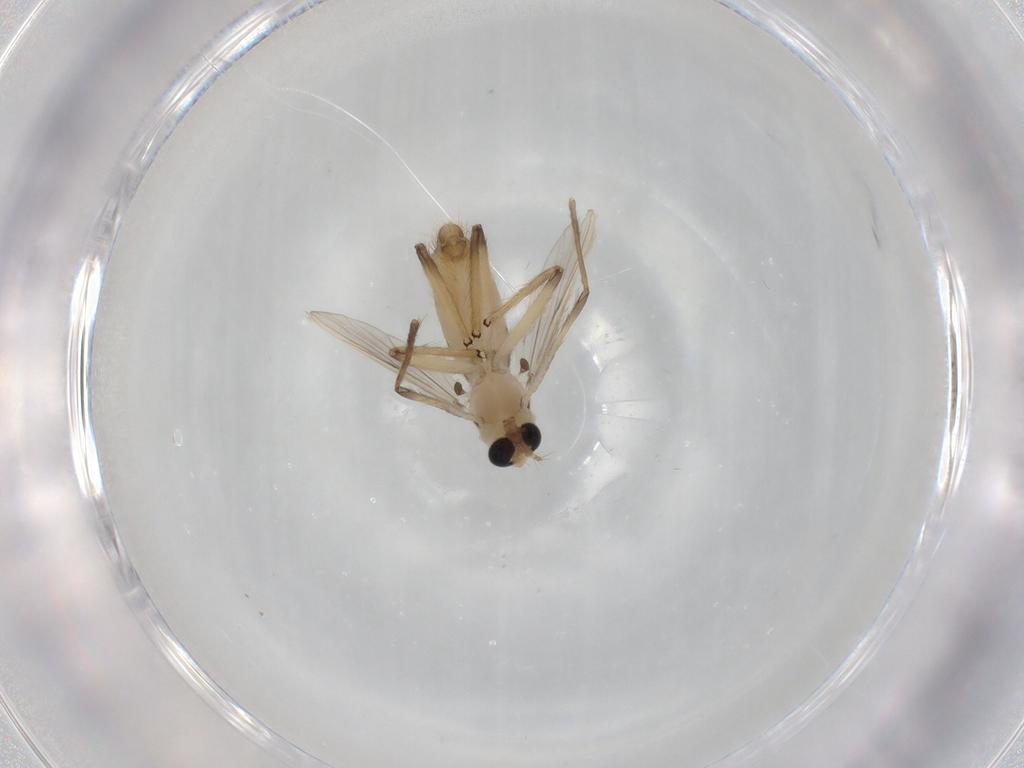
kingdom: Animalia
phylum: Arthropoda
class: Insecta
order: Diptera
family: Chironomidae
